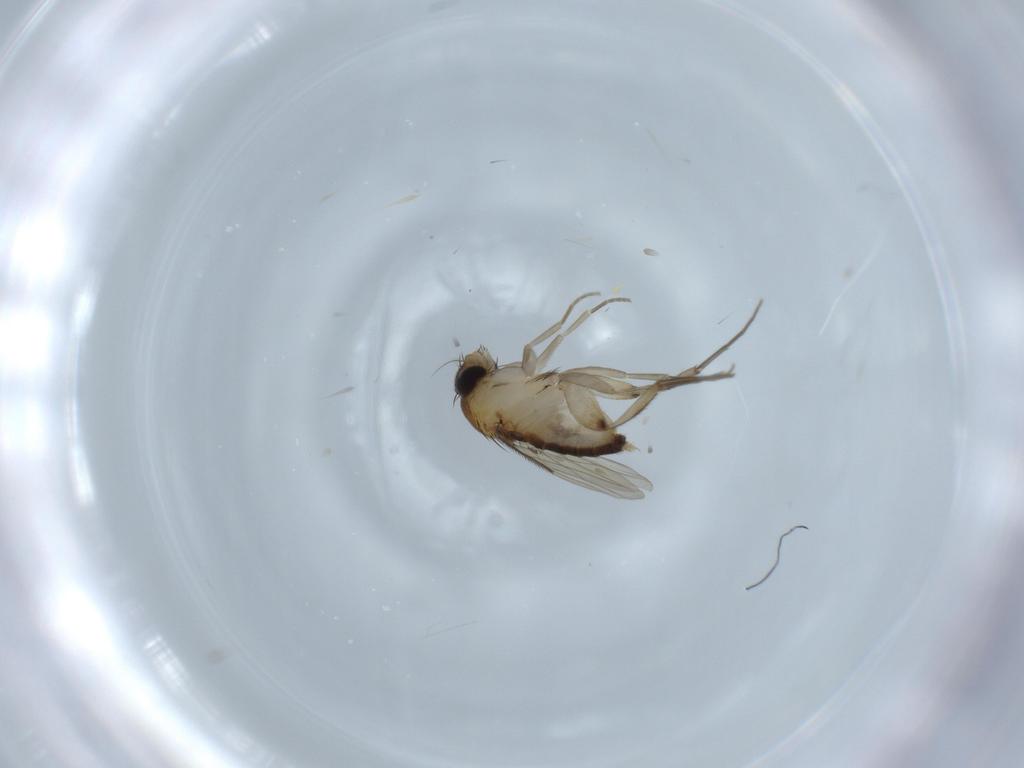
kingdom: Animalia
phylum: Arthropoda
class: Insecta
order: Diptera
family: Phoridae
